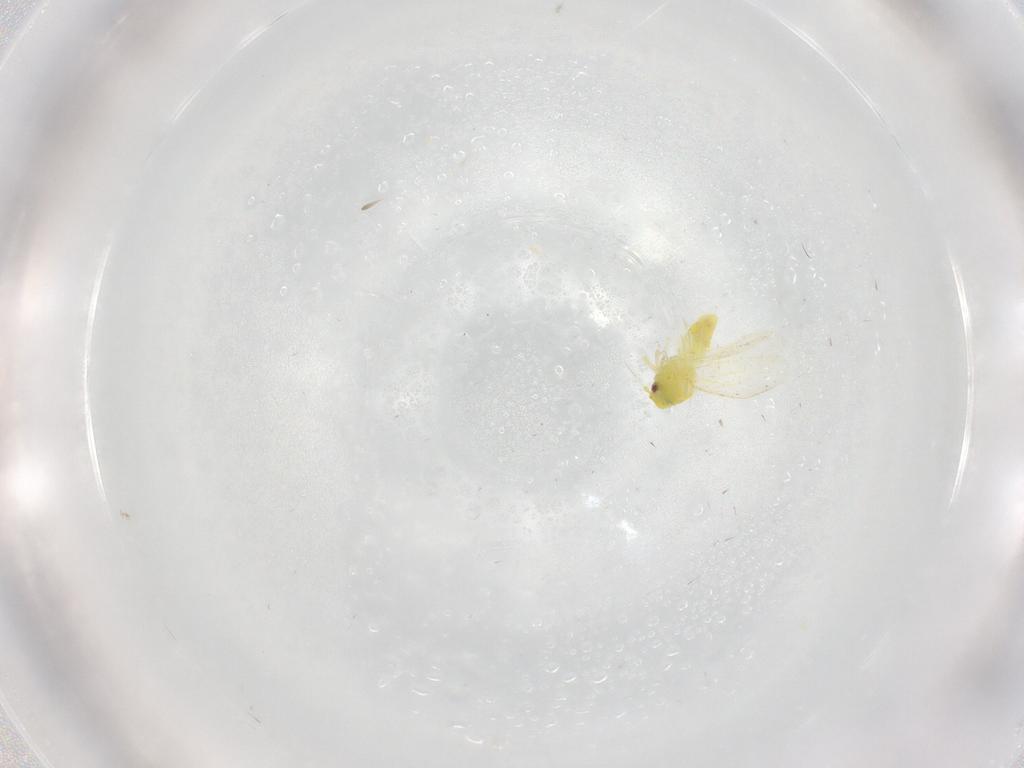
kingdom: Animalia
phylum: Arthropoda
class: Insecta
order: Hemiptera
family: Aleyrodidae
